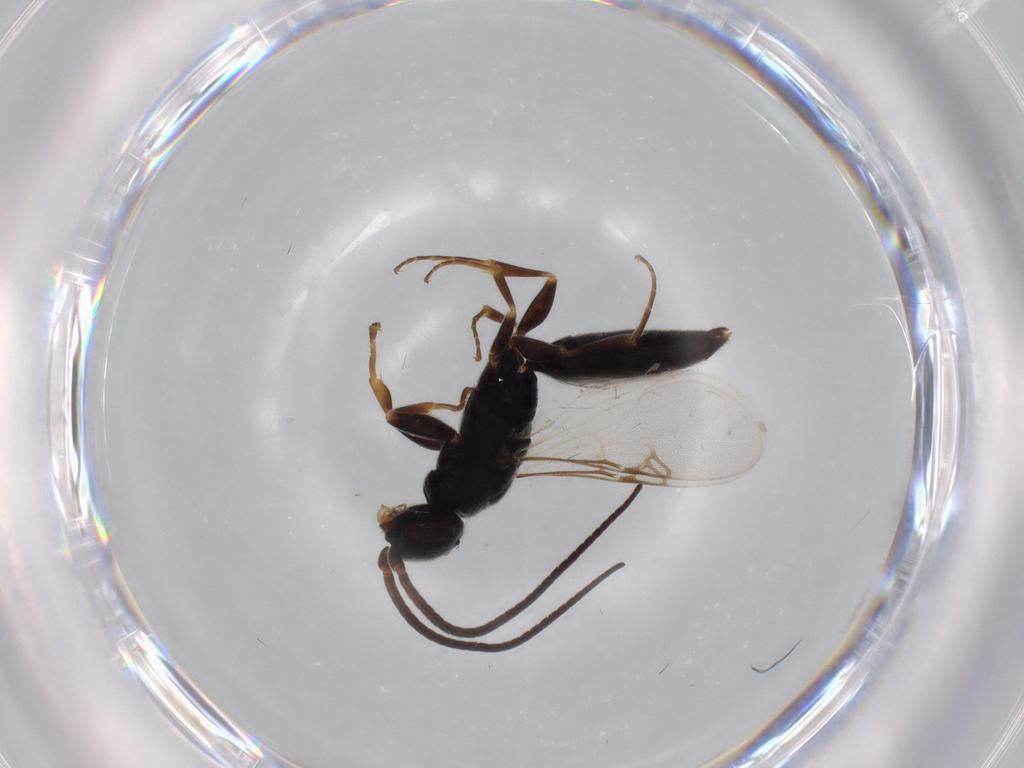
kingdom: Animalia
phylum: Arthropoda
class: Insecta
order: Hymenoptera
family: Sclerogibbidae
